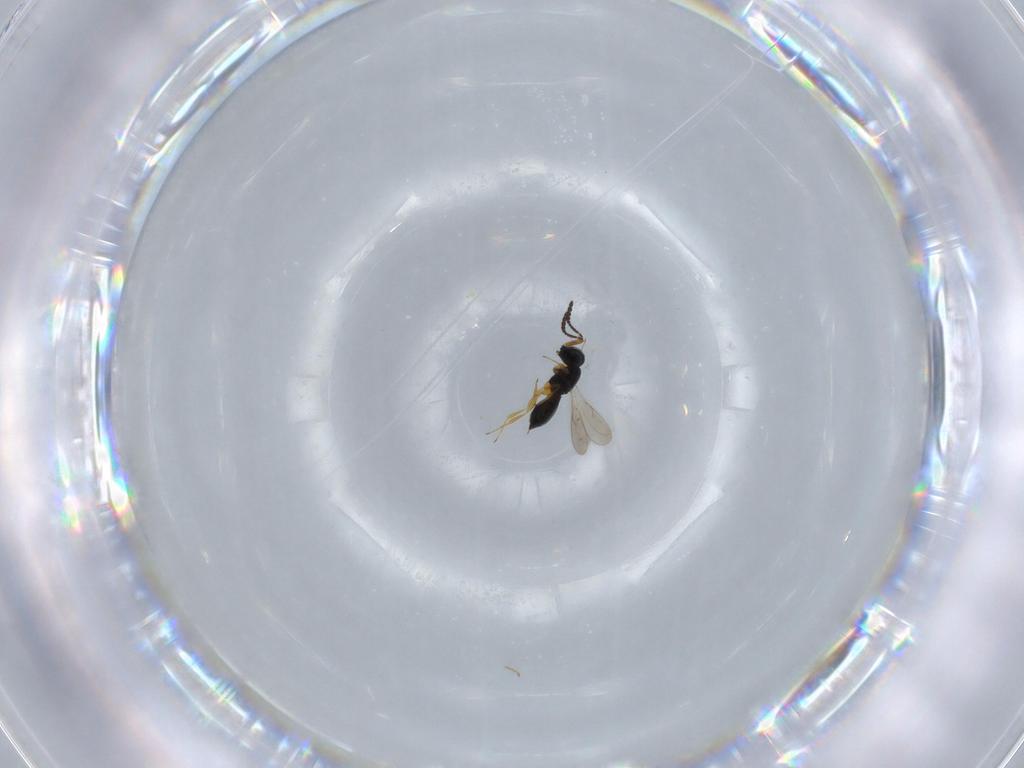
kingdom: Animalia
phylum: Arthropoda
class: Insecta
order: Hymenoptera
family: Scelionidae
